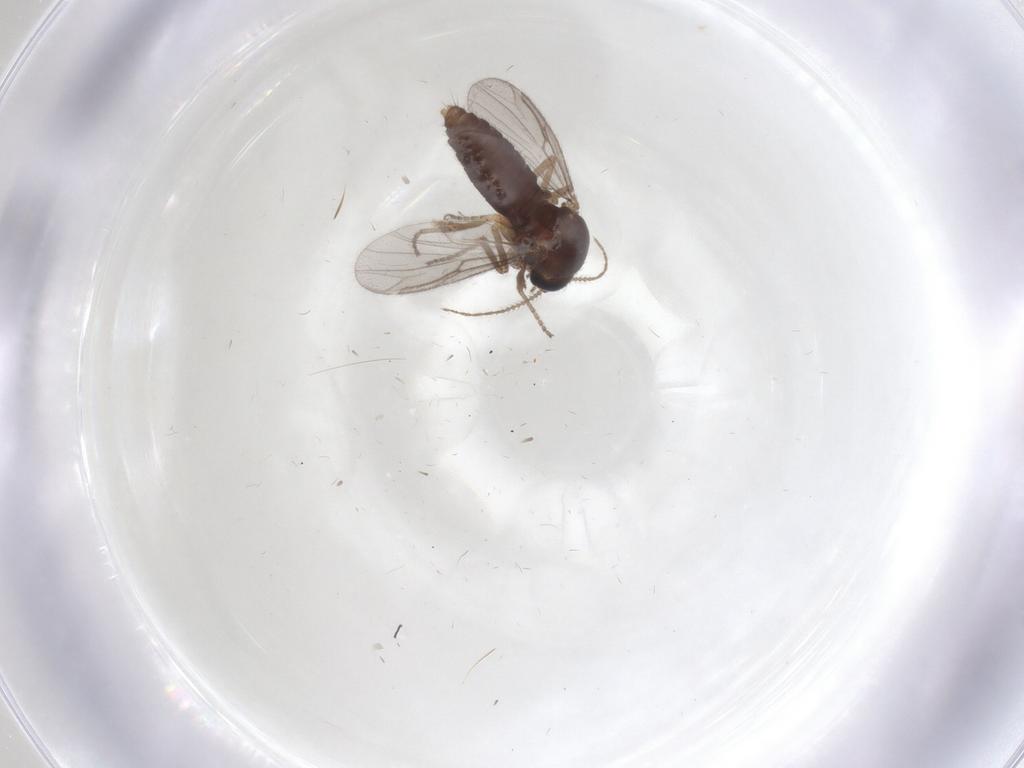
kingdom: Animalia
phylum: Arthropoda
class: Insecta
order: Diptera
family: Ceratopogonidae
